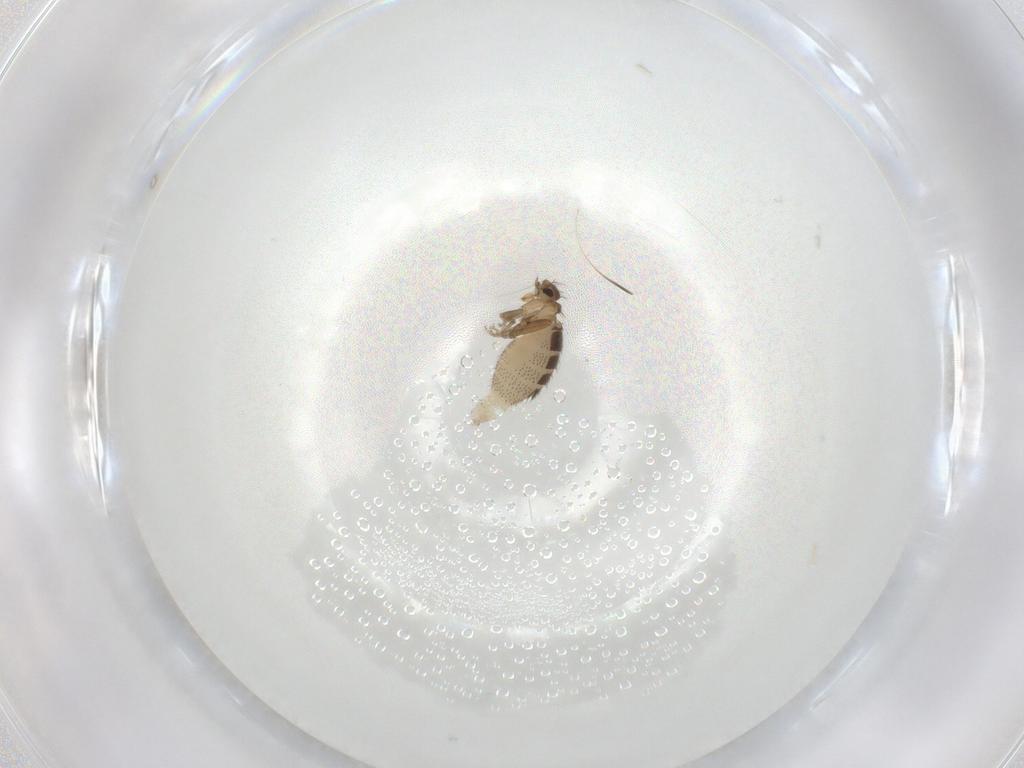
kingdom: Animalia
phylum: Arthropoda
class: Insecta
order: Diptera
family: Phoridae
